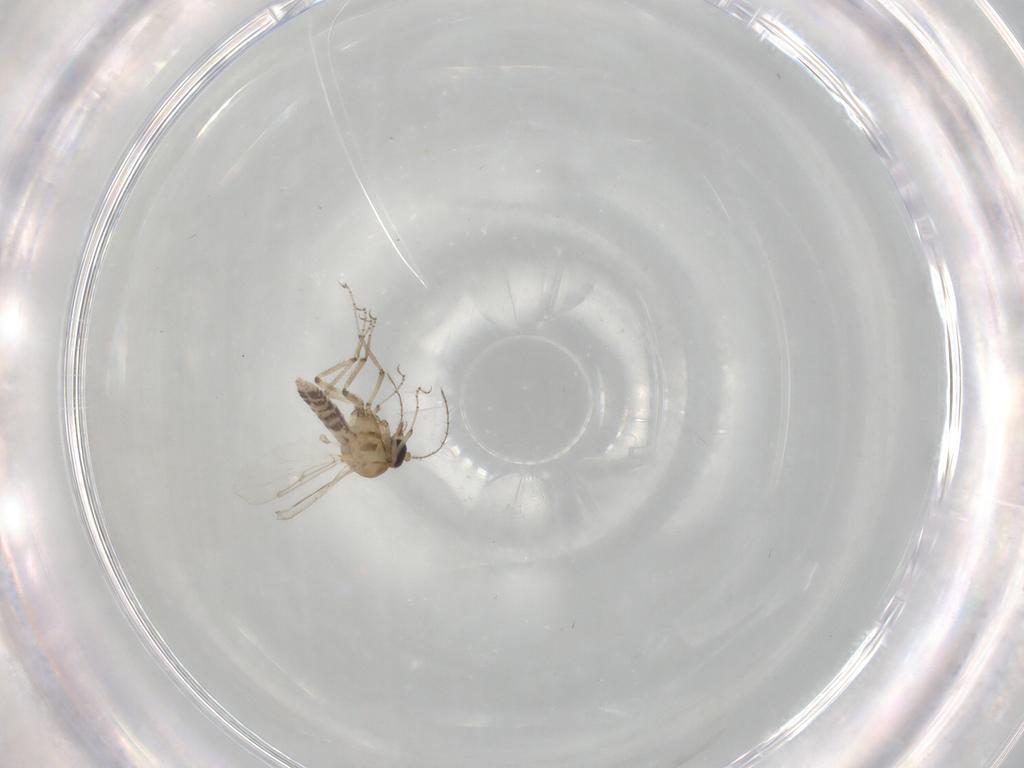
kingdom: Animalia
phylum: Arthropoda
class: Insecta
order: Diptera
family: Ceratopogonidae
